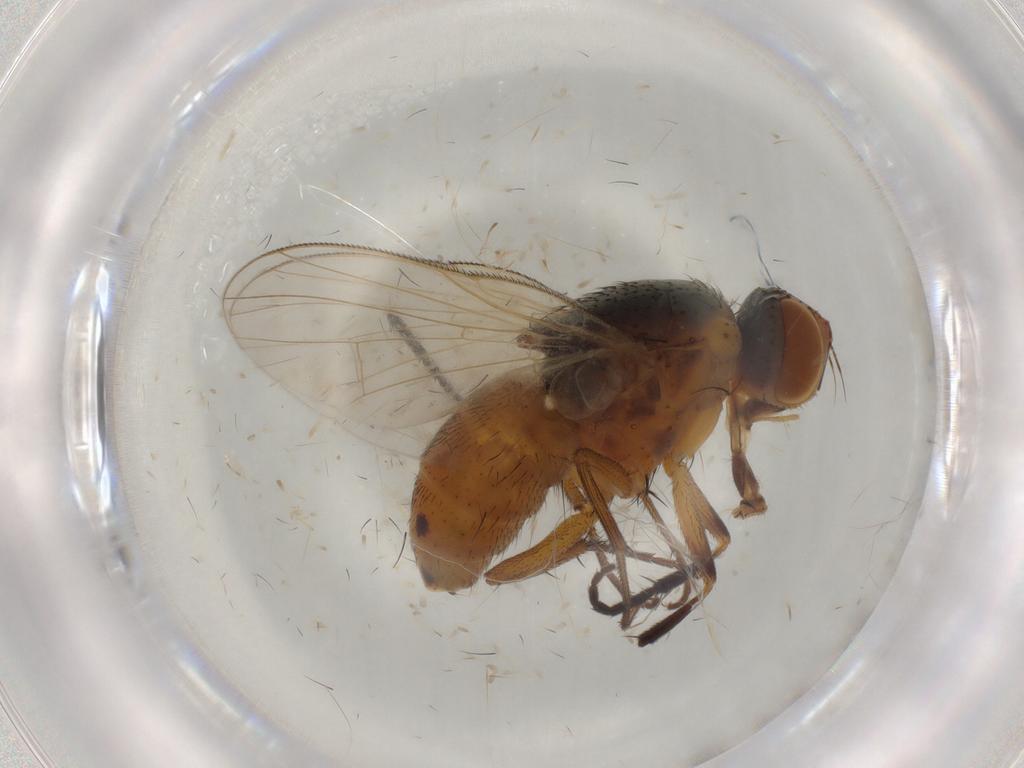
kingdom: Animalia
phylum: Arthropoda
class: Insecta
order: Diptera
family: Muscidae
